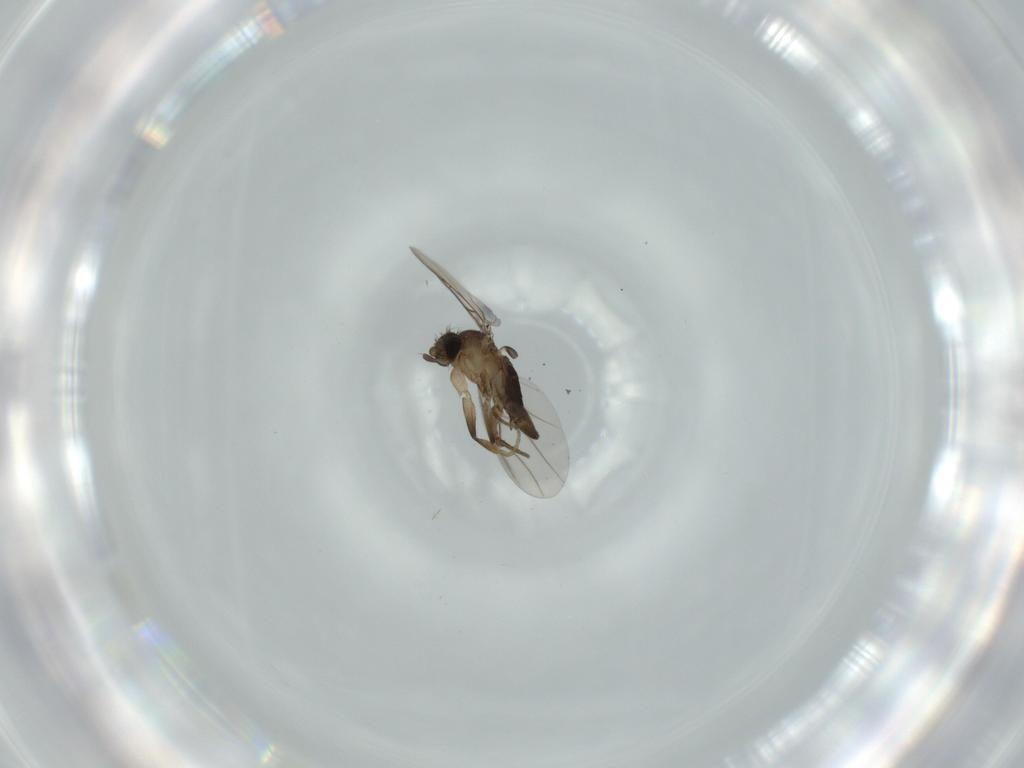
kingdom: Animalia
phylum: Arthropoda
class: Insecta
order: Diptera
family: Phoridae
